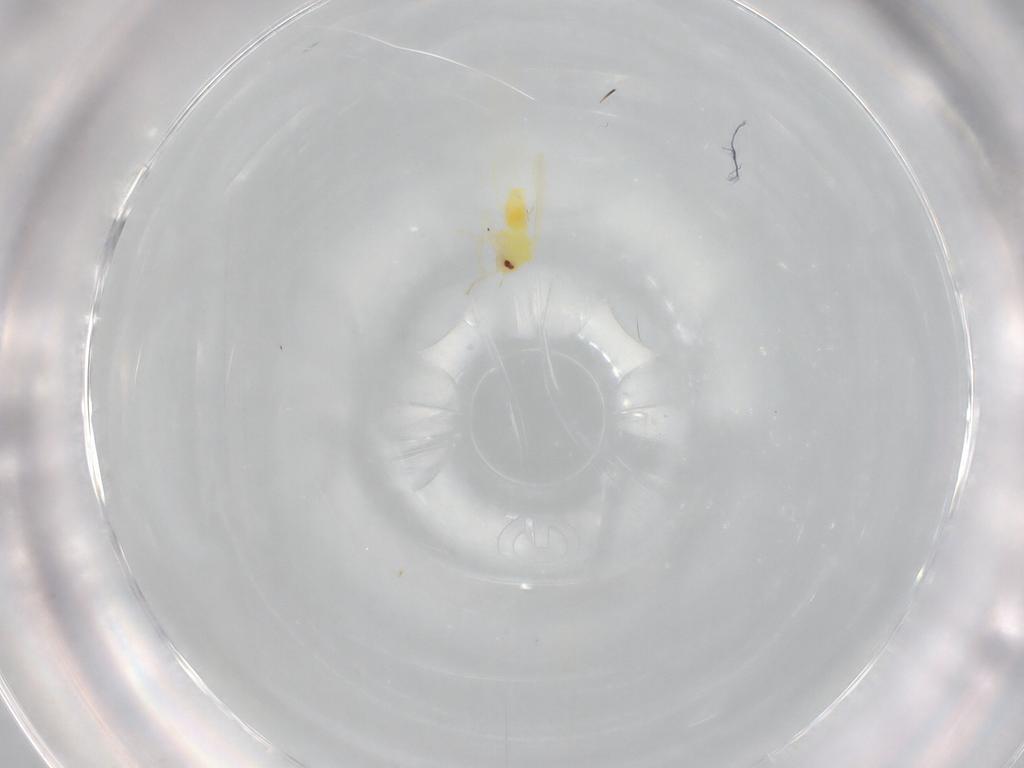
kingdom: Animalia
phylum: Arthropoda
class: Insecta
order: Hemiptera
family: Aleyrodidae
